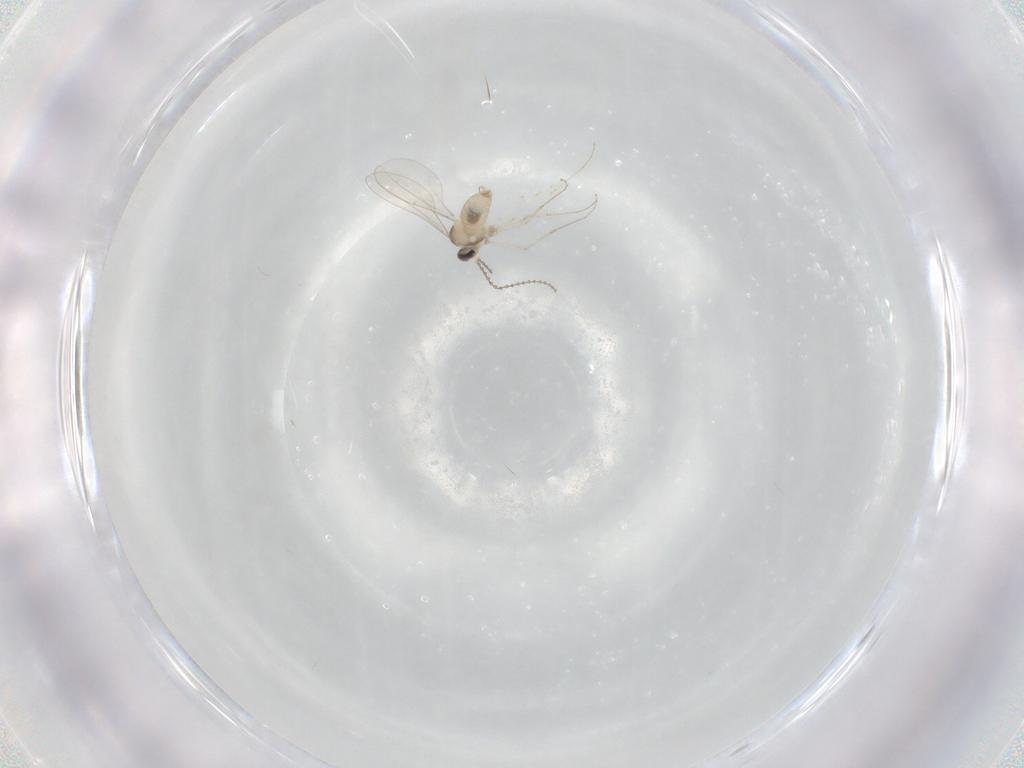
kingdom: Animalia
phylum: Arthropoda
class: Insecta
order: Diptera
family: Cecidomyiidae
